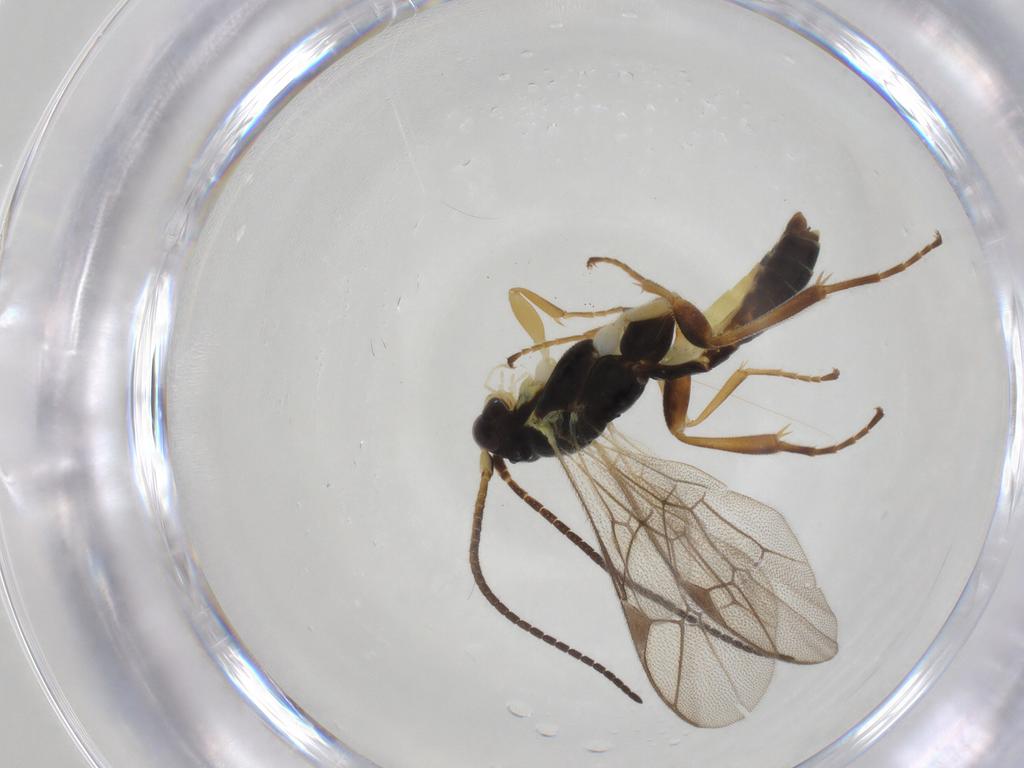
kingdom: Animalia
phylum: Arthropoda
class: Insecta
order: Hymenoptera
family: Ichneumonidae
